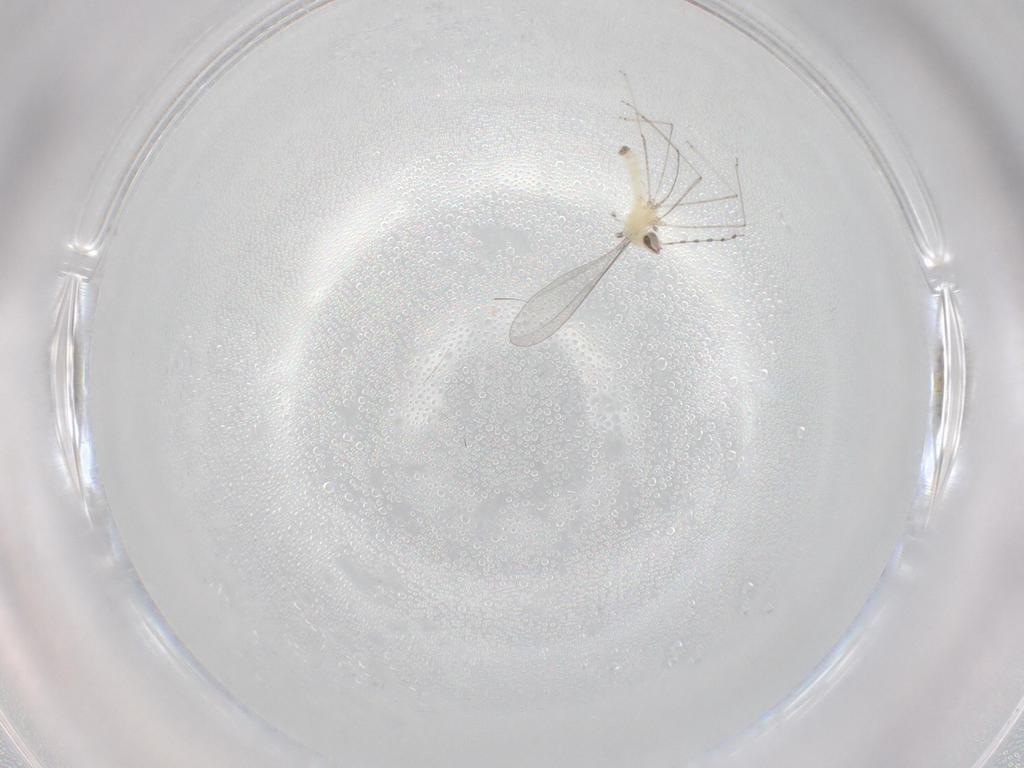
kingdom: Animalia
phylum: Arthropoda
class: Insecta
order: Diptera
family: Cecidomyiidae
